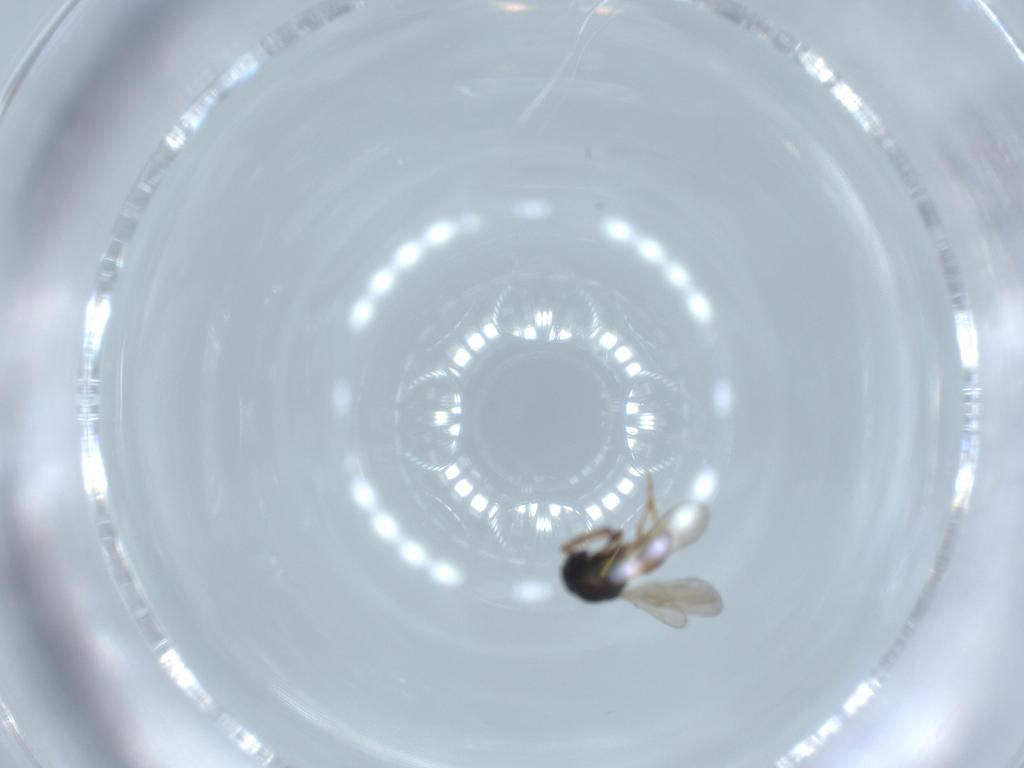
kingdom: Animalia
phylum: Arthropoda
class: Insecta
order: Hymenoptera
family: Scelionidae
